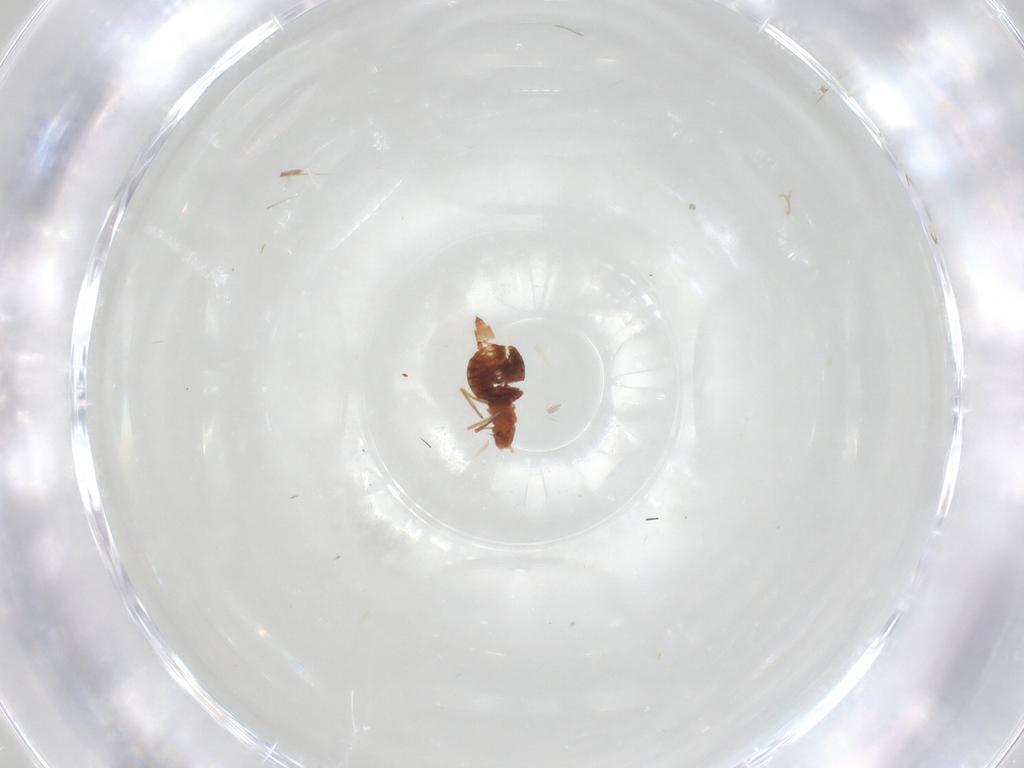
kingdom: Animalia
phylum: Arthropoda
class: Insecta
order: Thysanoptera
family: Aeolothripidae
